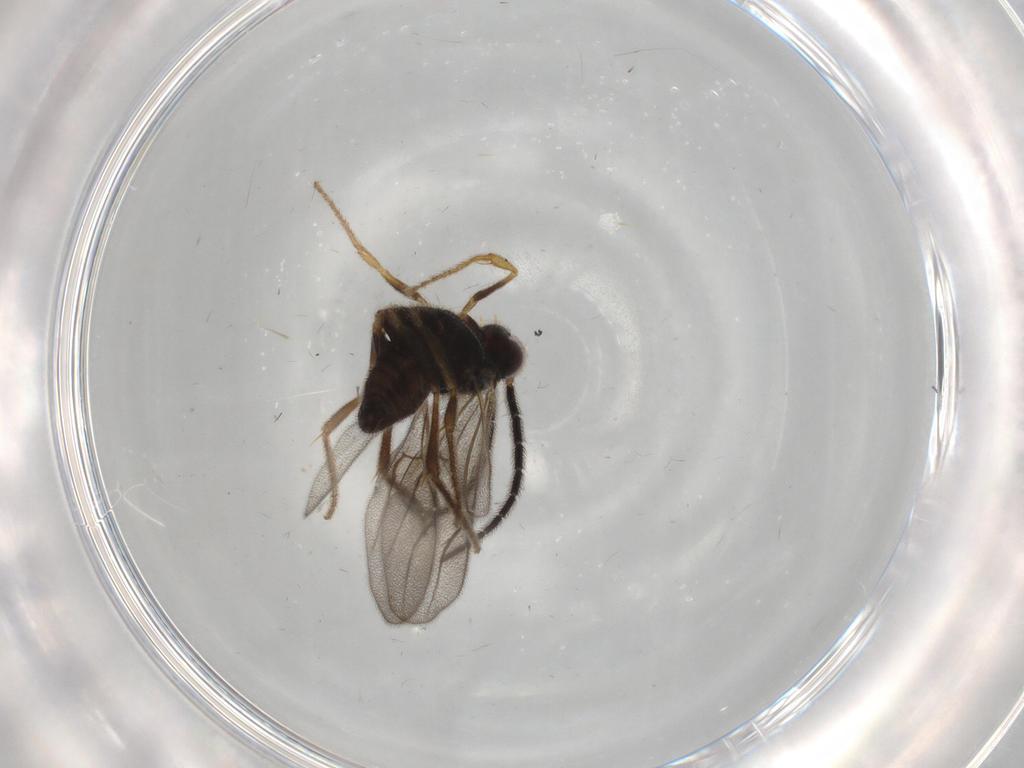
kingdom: Animalia
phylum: Arthropoda
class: Insecta
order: Hymenoptera
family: Dryinidae
